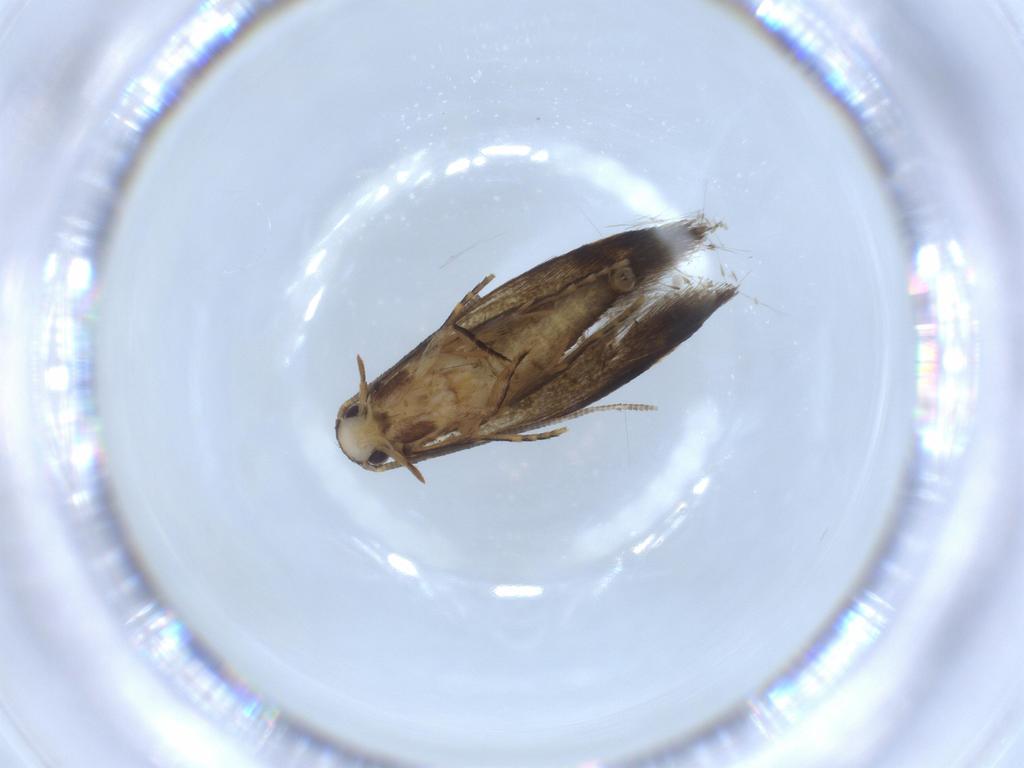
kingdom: Animalia
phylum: Arthropoda
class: Insecta
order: Lepidoptera
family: Tineidae
